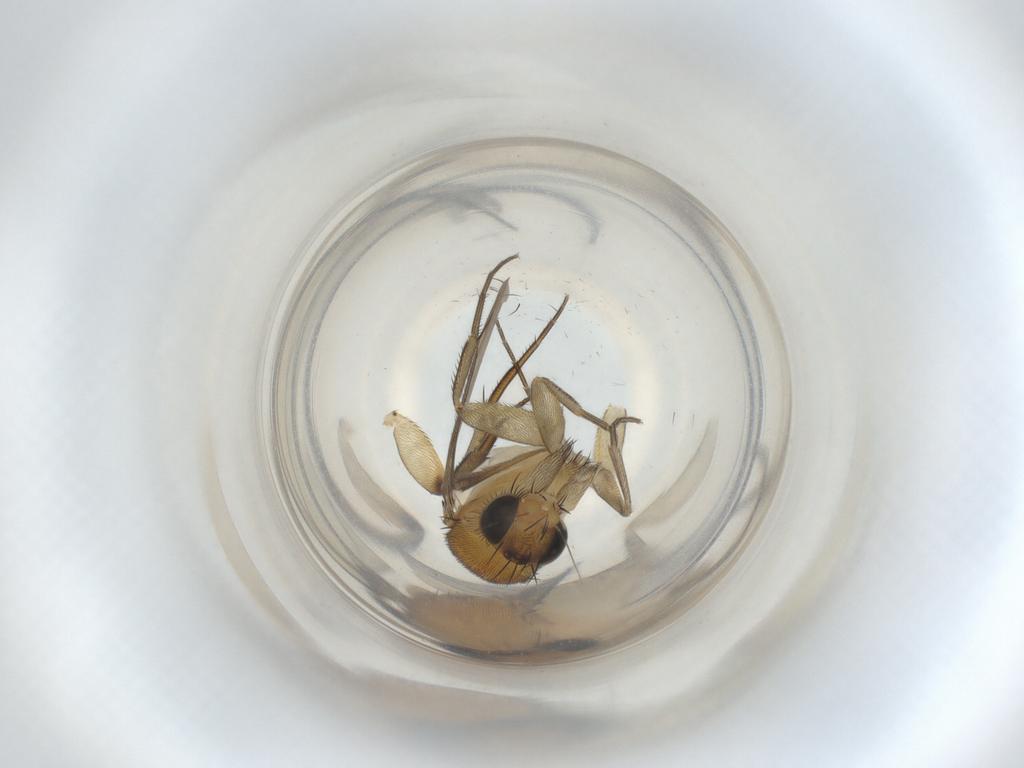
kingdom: Animalia
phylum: Arthropoda
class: Insecta
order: Diptera
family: Phoridae
